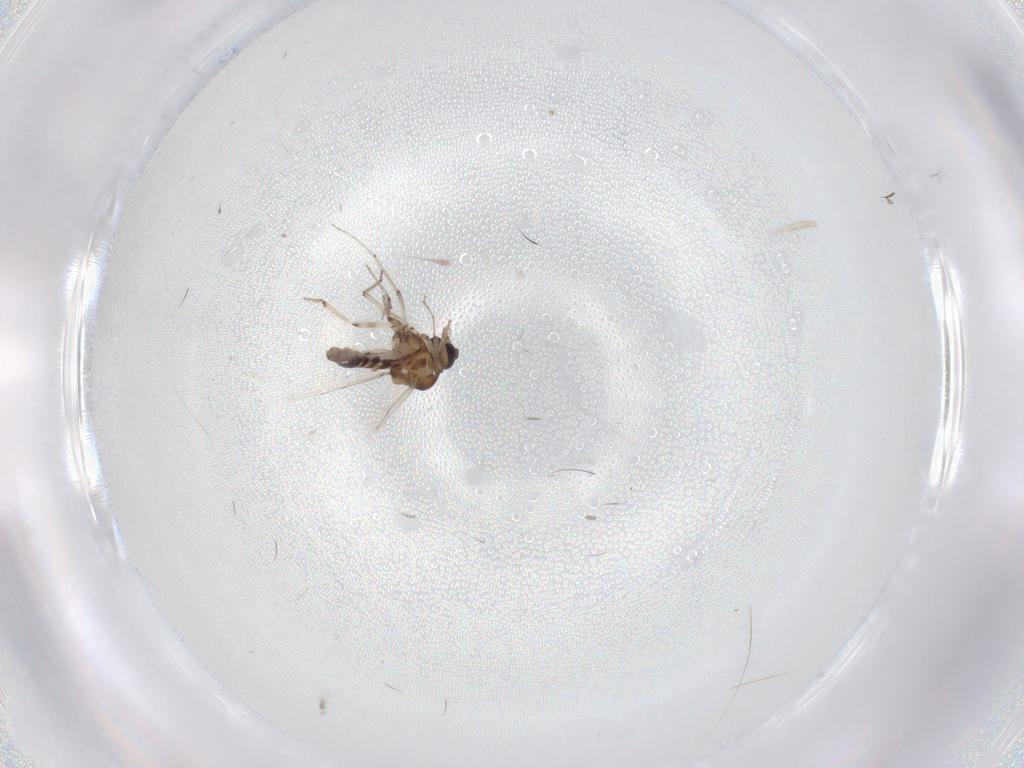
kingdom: Animalia
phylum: Arthropoda
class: Insecta
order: Diptera
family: Ceratopogonidae
